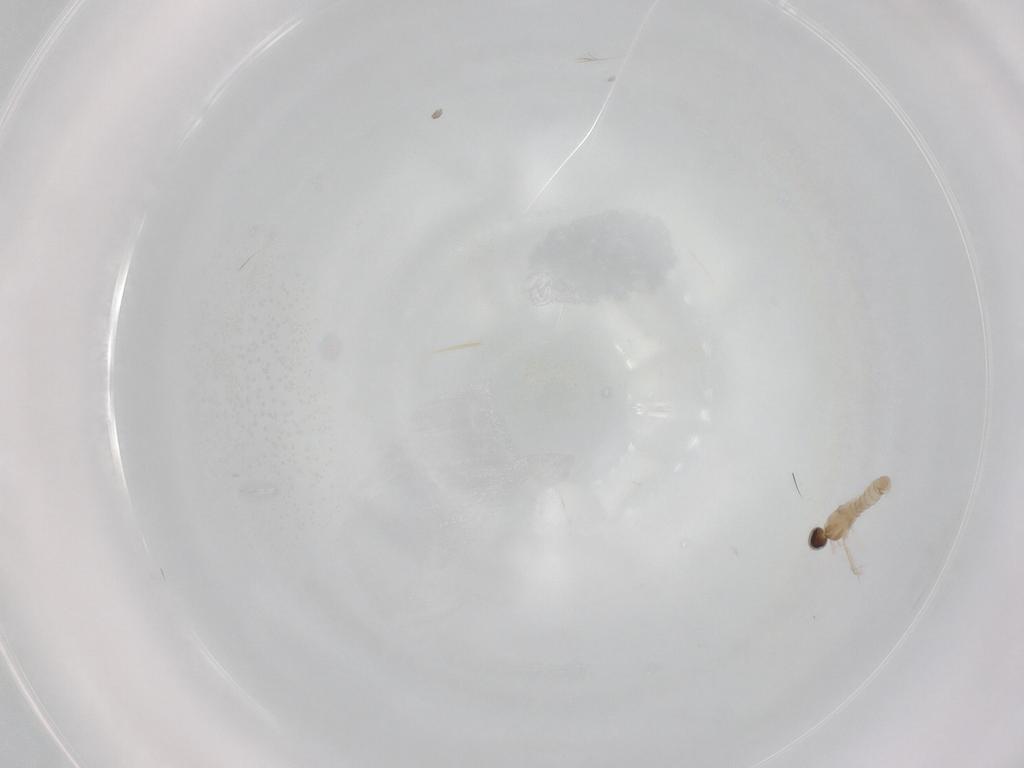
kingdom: Animalia
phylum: Arthropoda
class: Insecta
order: Diptera
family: Cecidomyiidae
